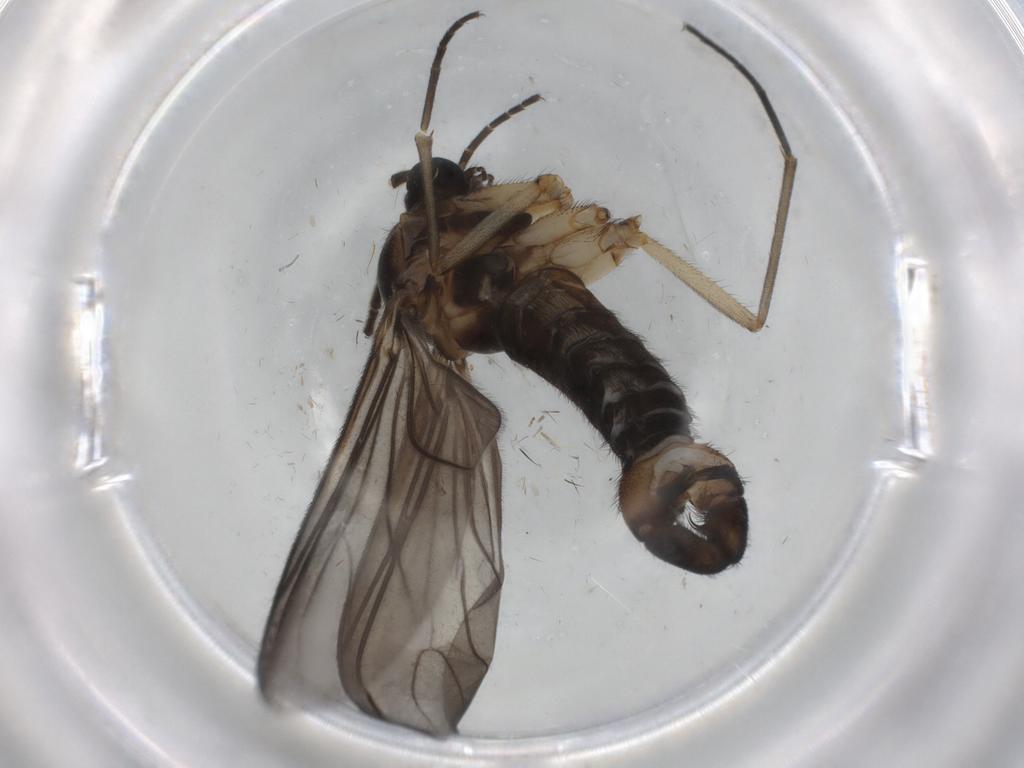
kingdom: Animalia
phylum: Arthropoda
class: Insecta
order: Diptera
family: Sciaridae
